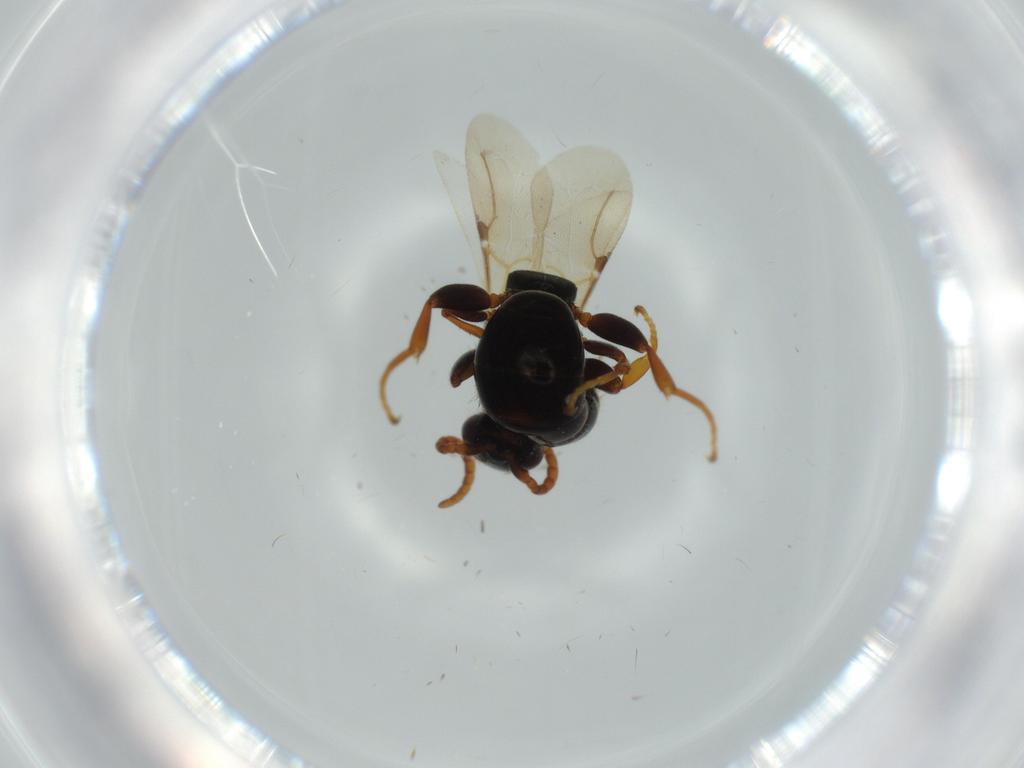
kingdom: Animalia
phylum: Arthropoda
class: Insecta
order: Hymenoptera
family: Bethylidae
